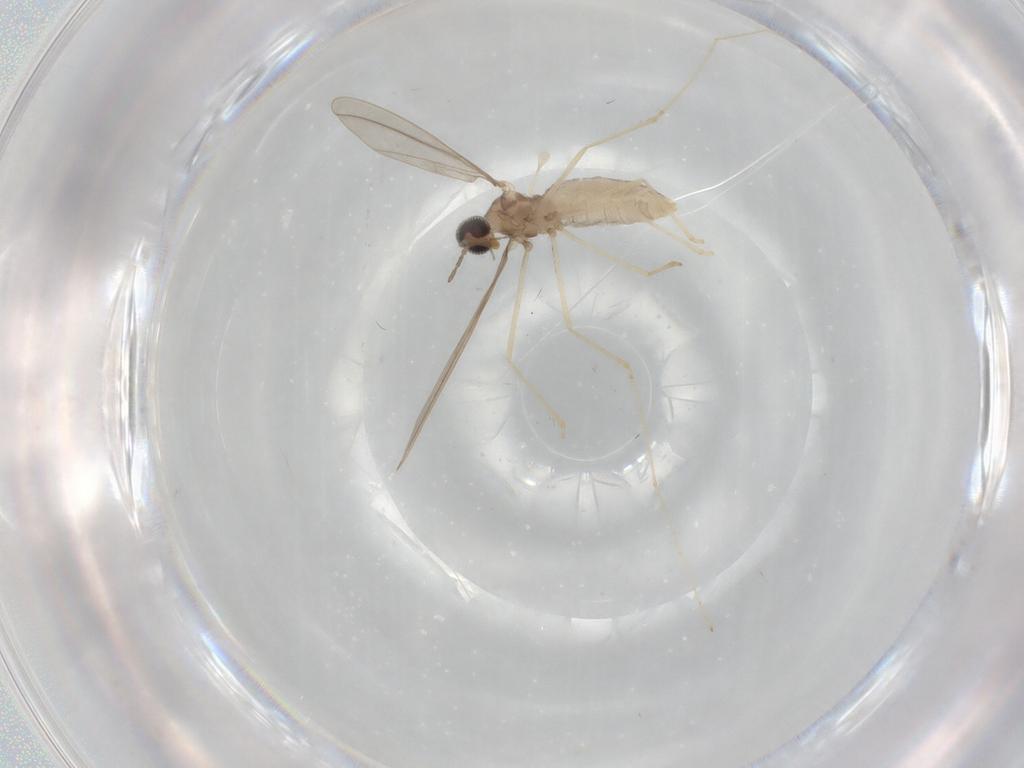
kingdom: Animalia
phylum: Arthropoda
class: Insecta
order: Diptera
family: Cecidomyiidae
